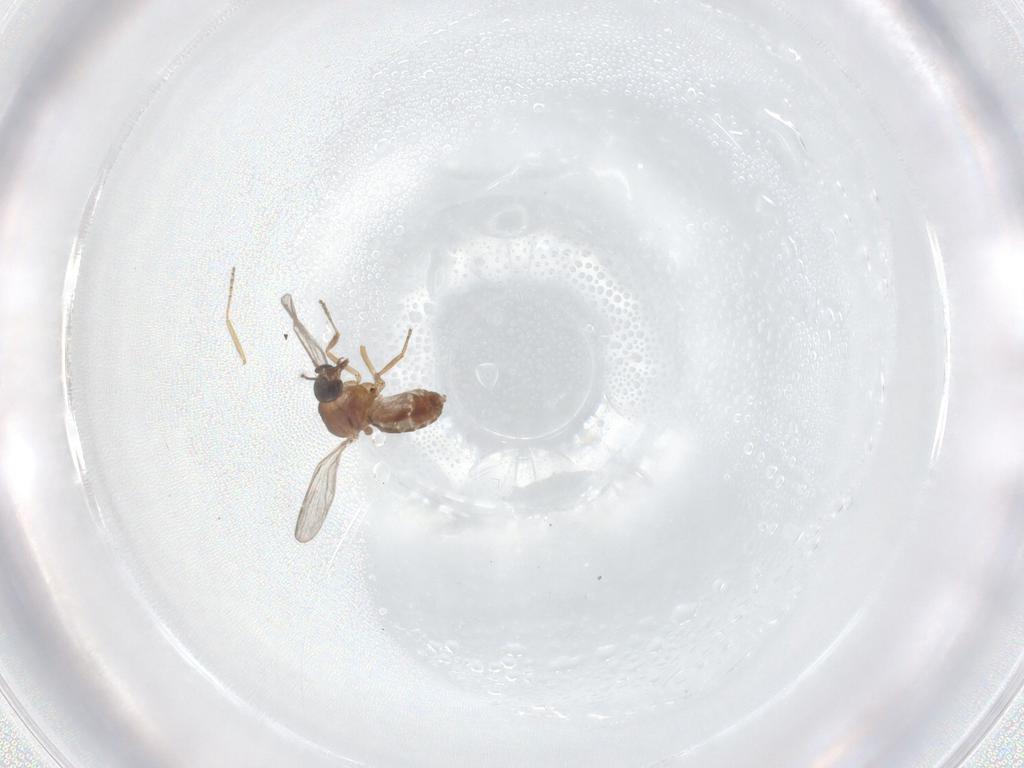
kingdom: Animalia
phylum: Arthropoda
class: Insecta
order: Diptera
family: Ceratopogonidae
